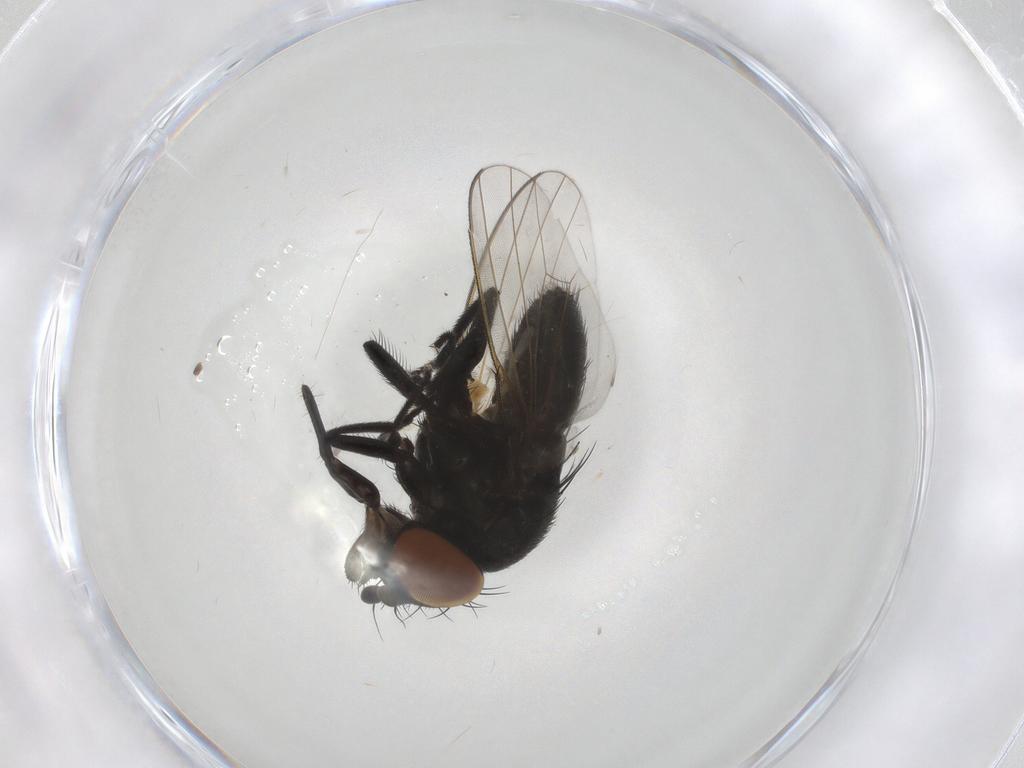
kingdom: Animalia
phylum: Arthropoda
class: Insecta
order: Diptera
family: Phoridae
